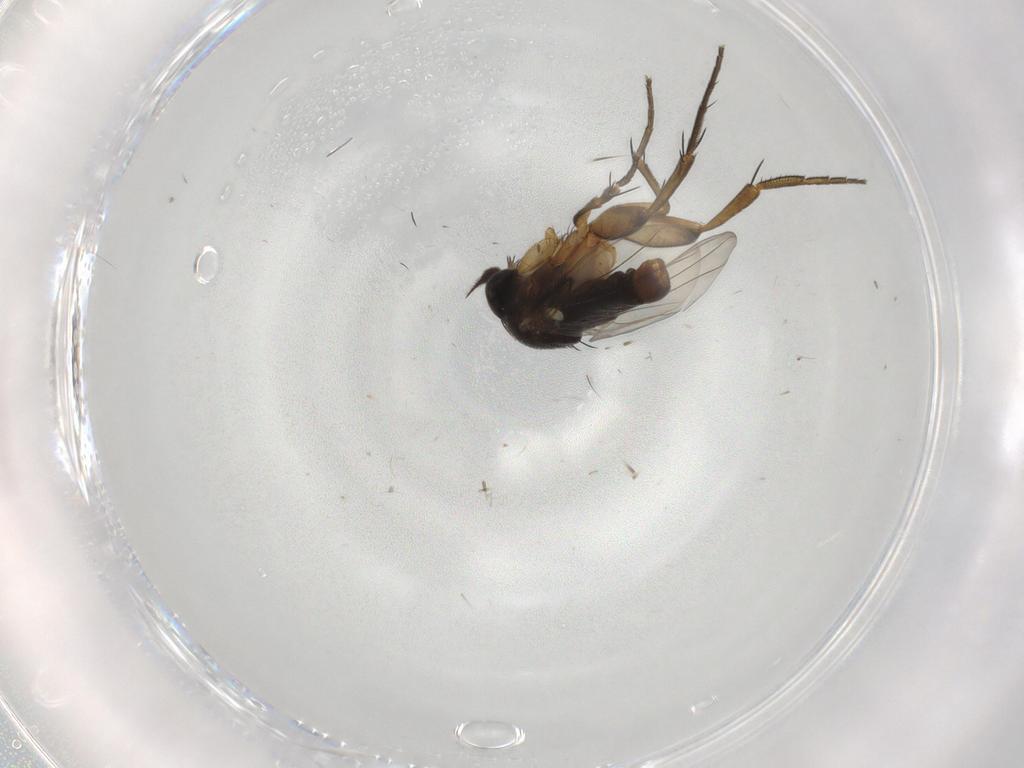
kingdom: Animalia
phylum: Arthropoda
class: Insecta
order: Diptera
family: Phoridae
